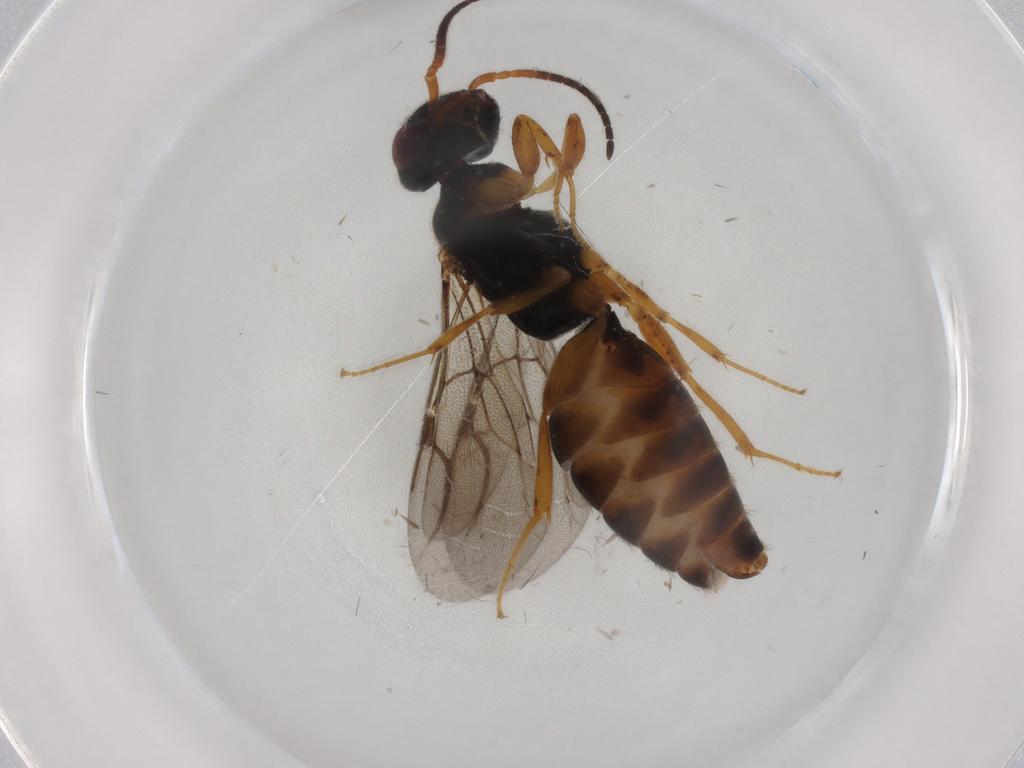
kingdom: Animalia
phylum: Arthropoda
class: Insecta
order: Hymenoptera
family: Bethylidae
